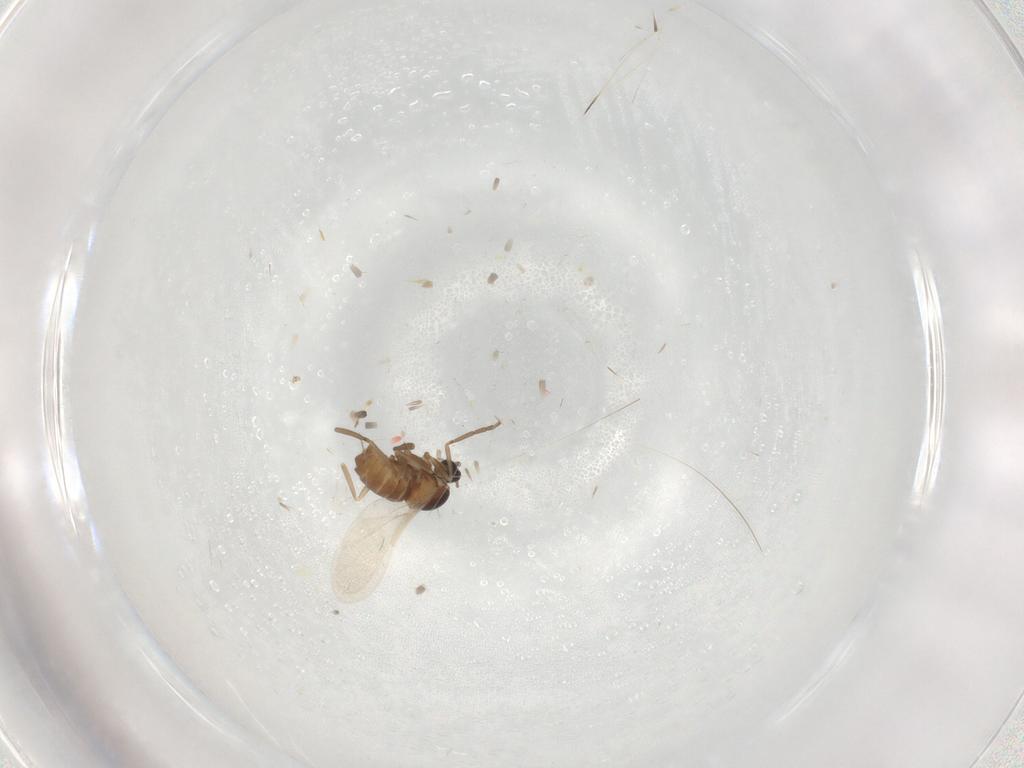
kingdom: Animalia
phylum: Arthropoda
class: Insecta
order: Diptera
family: Cecidomyiidae
